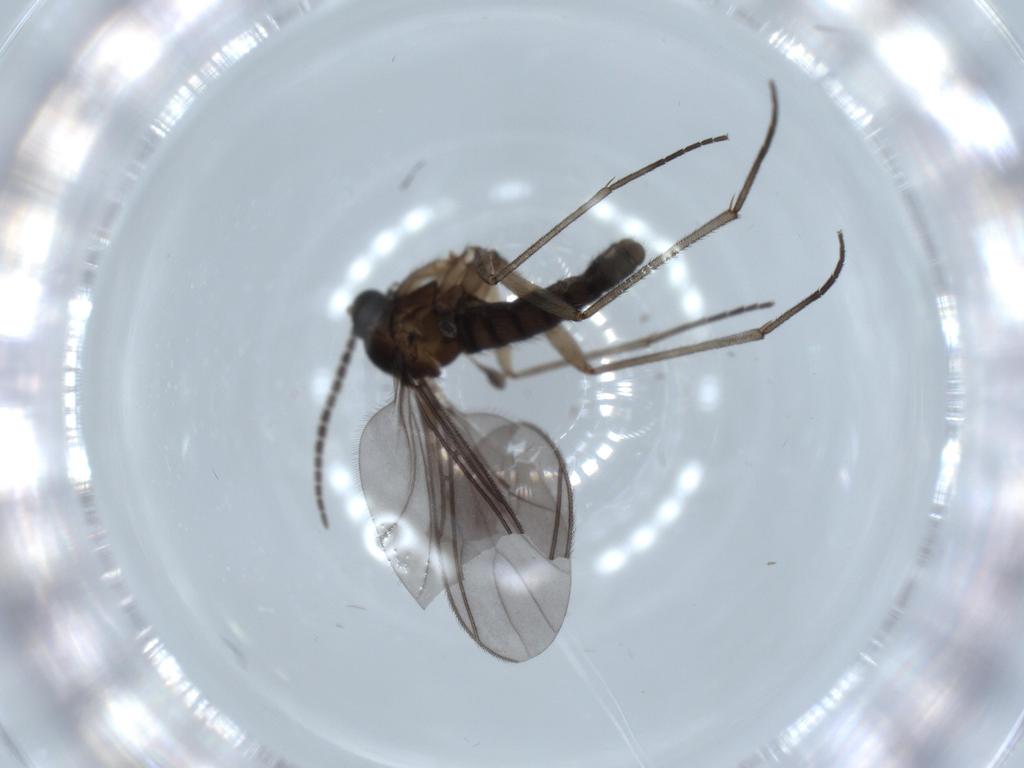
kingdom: Animalia
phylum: Arthropoda
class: Insecta
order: Diptera
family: Sciaridae
